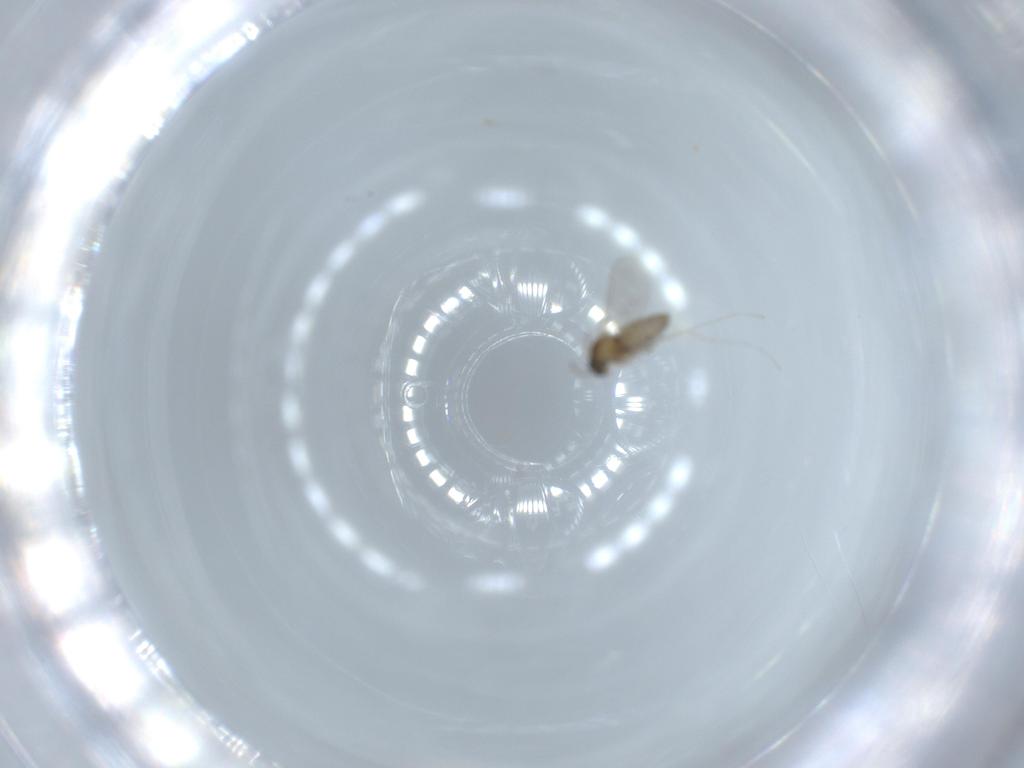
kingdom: Animalia
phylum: Arthropoda
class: Insecta
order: Diptera
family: Cecidomyiidae
